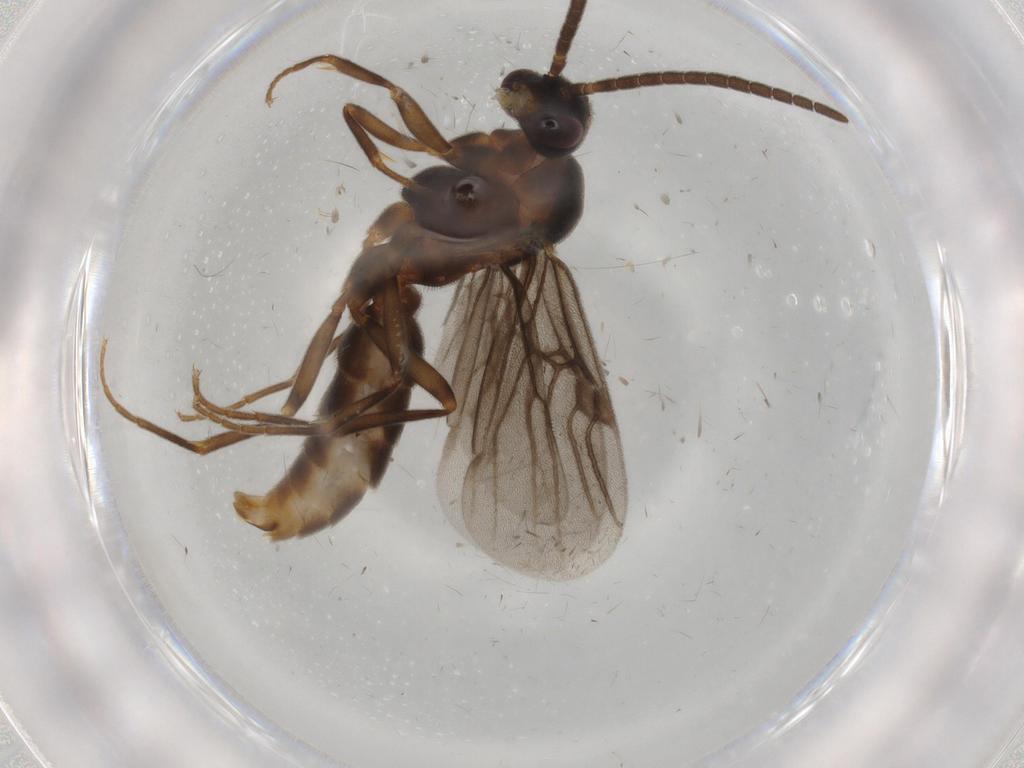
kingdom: Animalia
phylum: Arthropoda
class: Insecta
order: Hymenoptera
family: Formicidae
